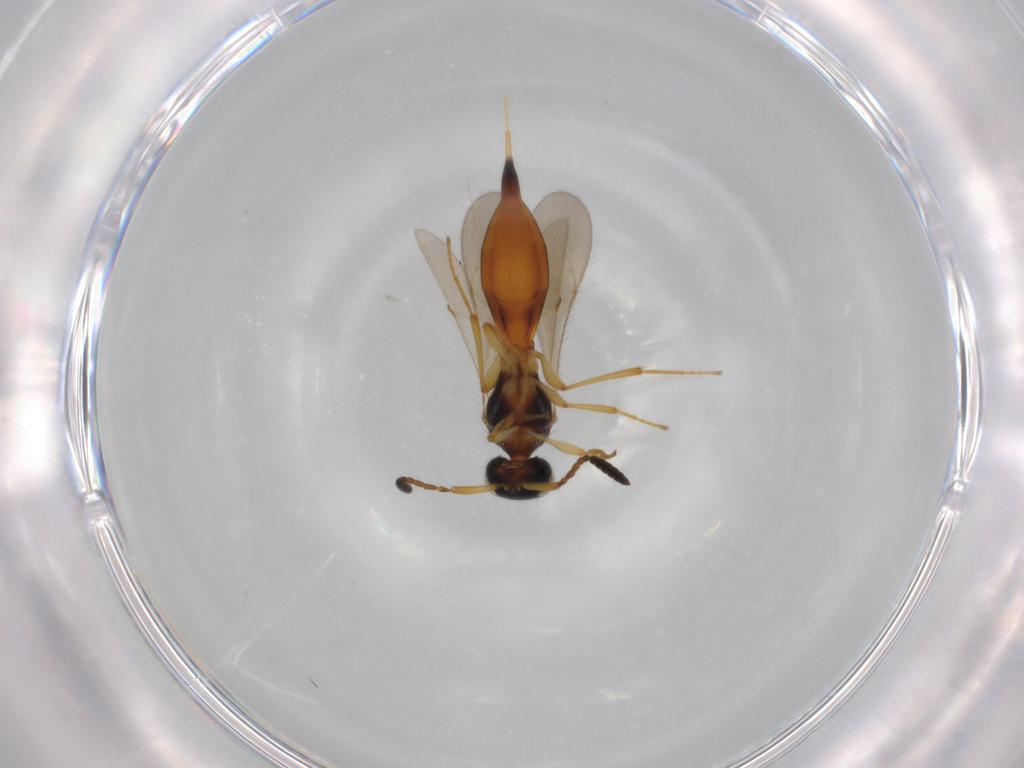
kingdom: Animalia
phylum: Arthropoda
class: Insecta
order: Hymenoptera
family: Scelionidae
